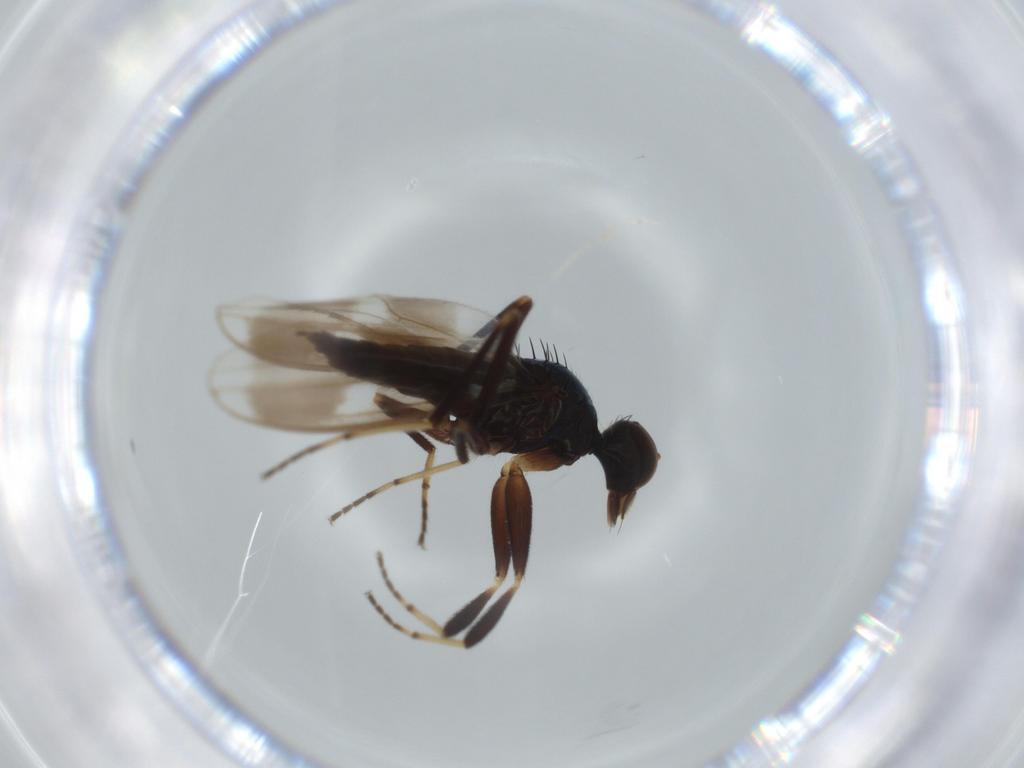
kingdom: Animalia
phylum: Arthropoda
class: Insecta
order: Diptera
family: Hybotidae
